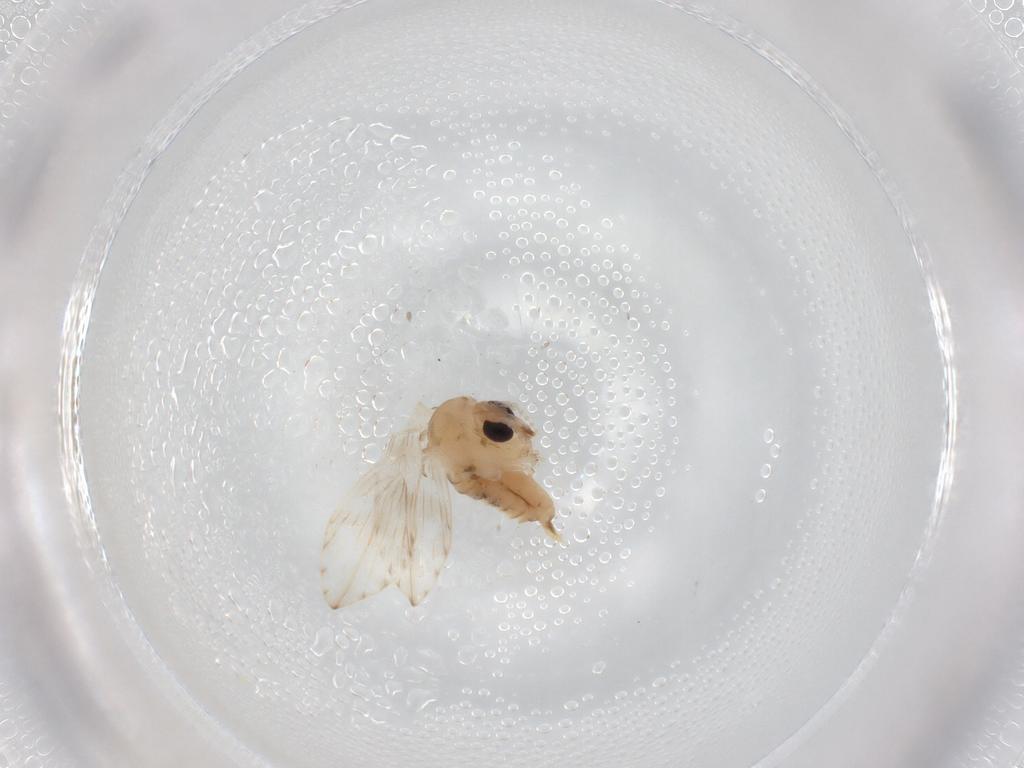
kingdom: Animalia
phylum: Arthropoda
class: Insecta
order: Diptera
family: Psychodidae
